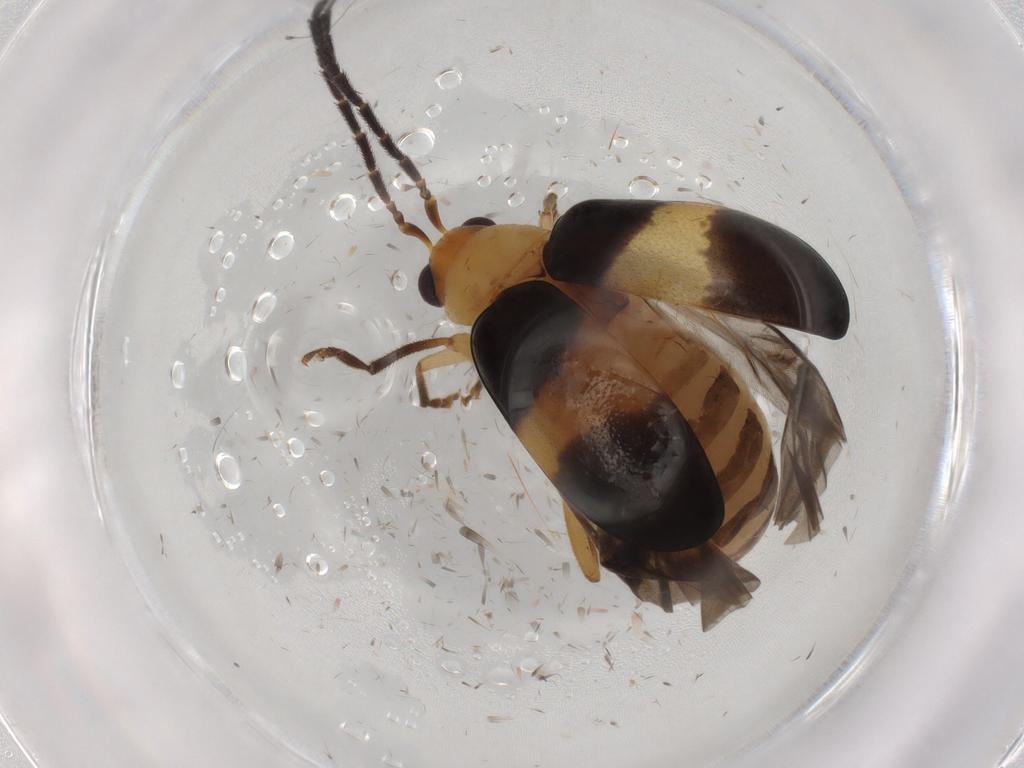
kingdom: Animalia
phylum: Arthropoda
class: Insecta
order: Coleoptera
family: Chrysomelidae
